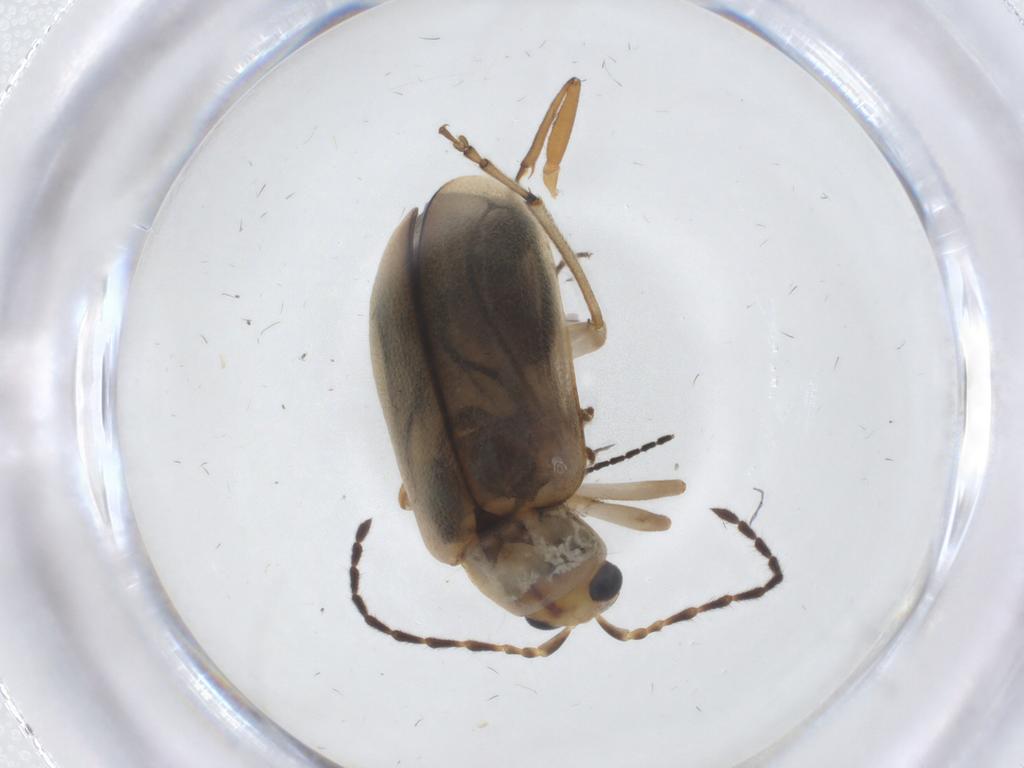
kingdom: Animalia
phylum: Arthropoda
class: Insecta
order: Coleoptera
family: Chrysomelidae
